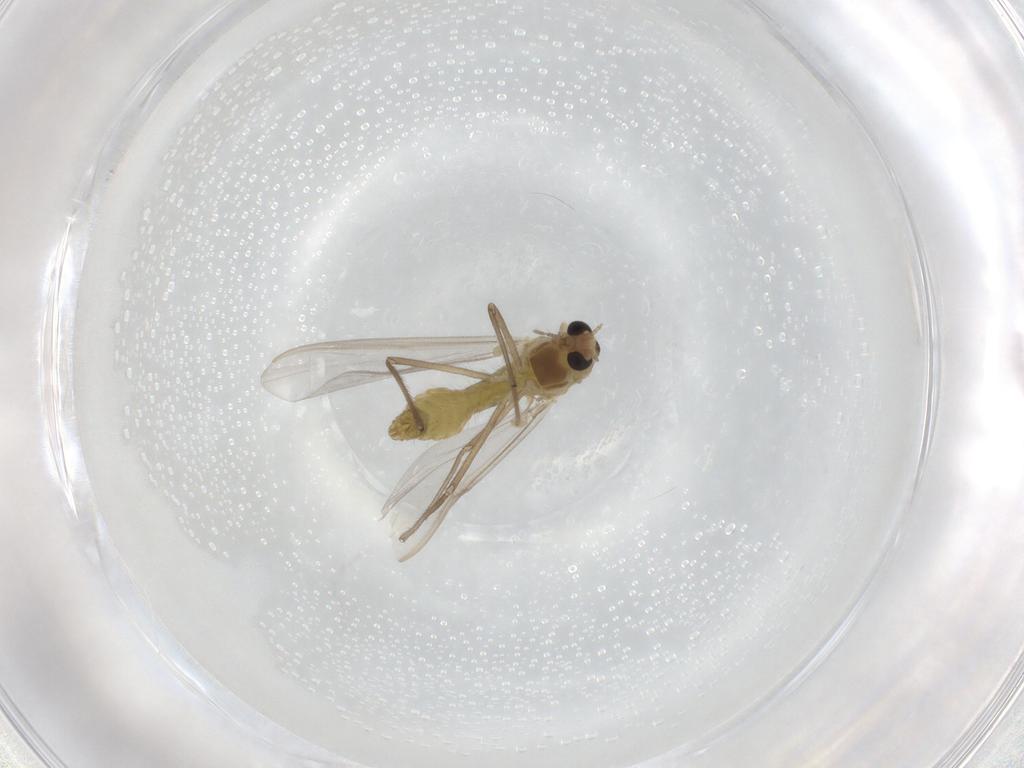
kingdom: Animalia
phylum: Arthropoda
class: Insecta
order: Diptera
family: Chironomidae
